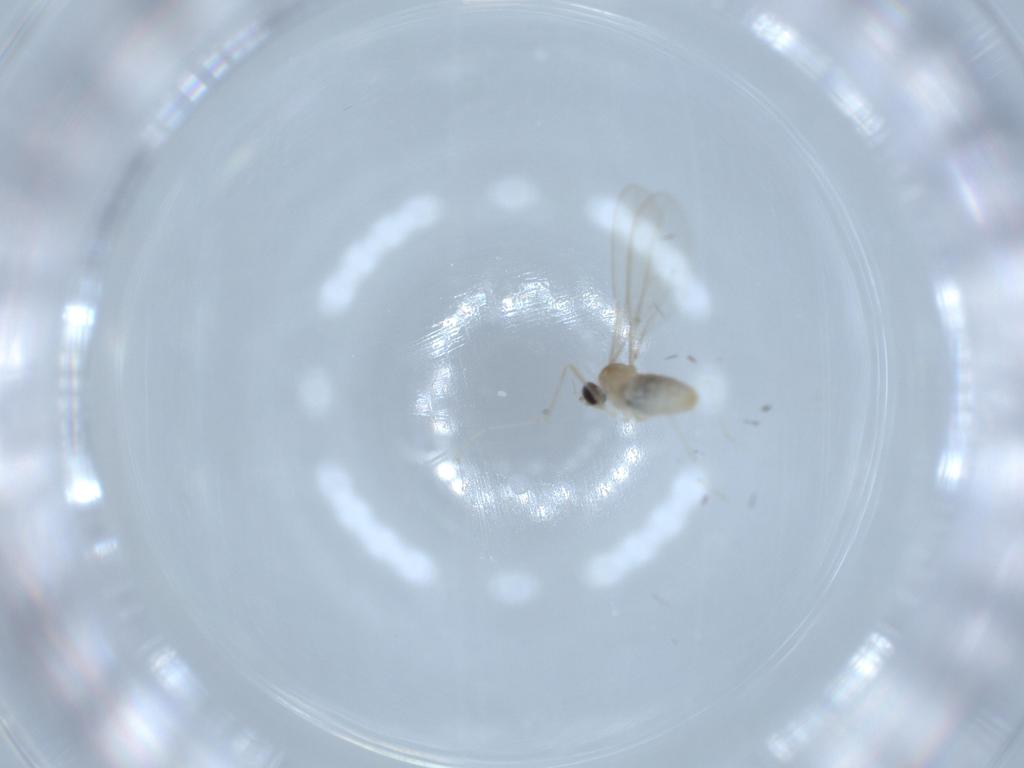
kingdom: Animalia
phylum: Arthropoda
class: Insecta
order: Diptera
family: Cecidomyiidae
